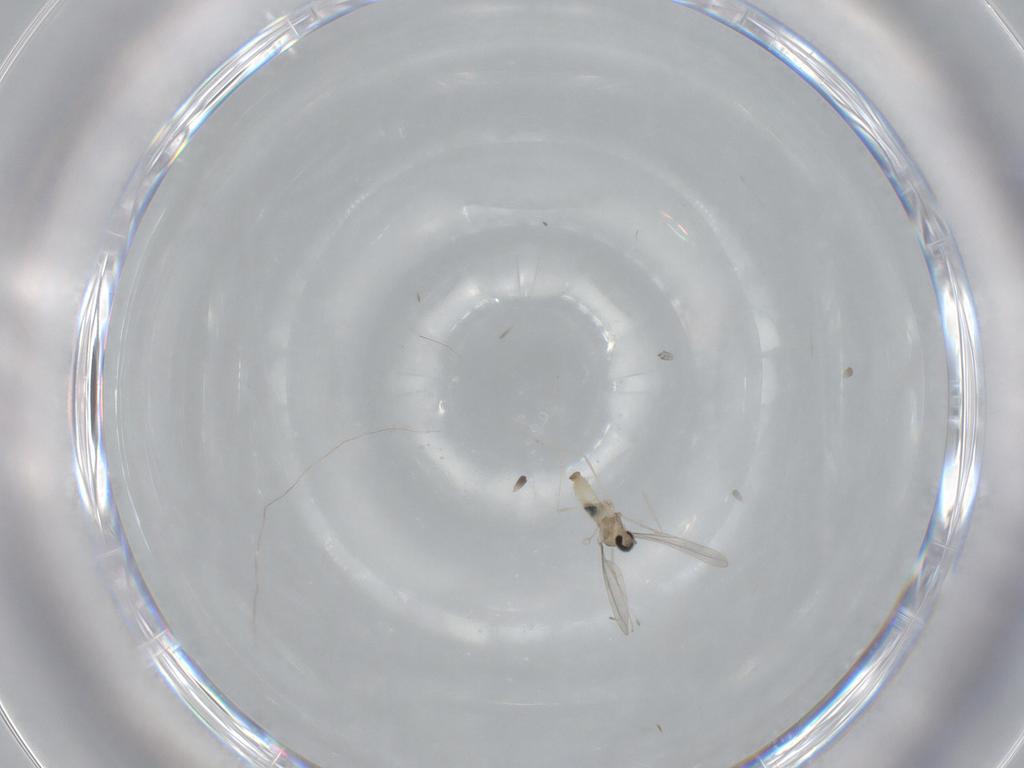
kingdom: Animalia
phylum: Arthropoda
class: Insecta
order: Diptera
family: Cecidomyiidae
